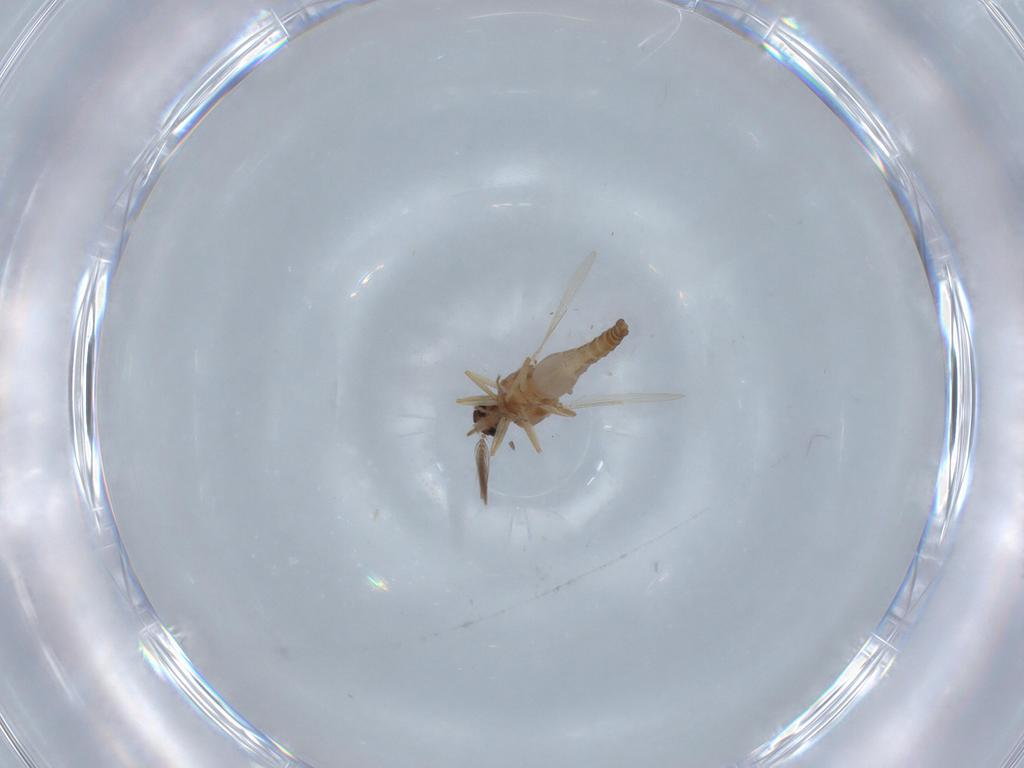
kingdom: Animalia
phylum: Arthropoda
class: Insecta
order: Diptera
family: Ceratopogonidae
